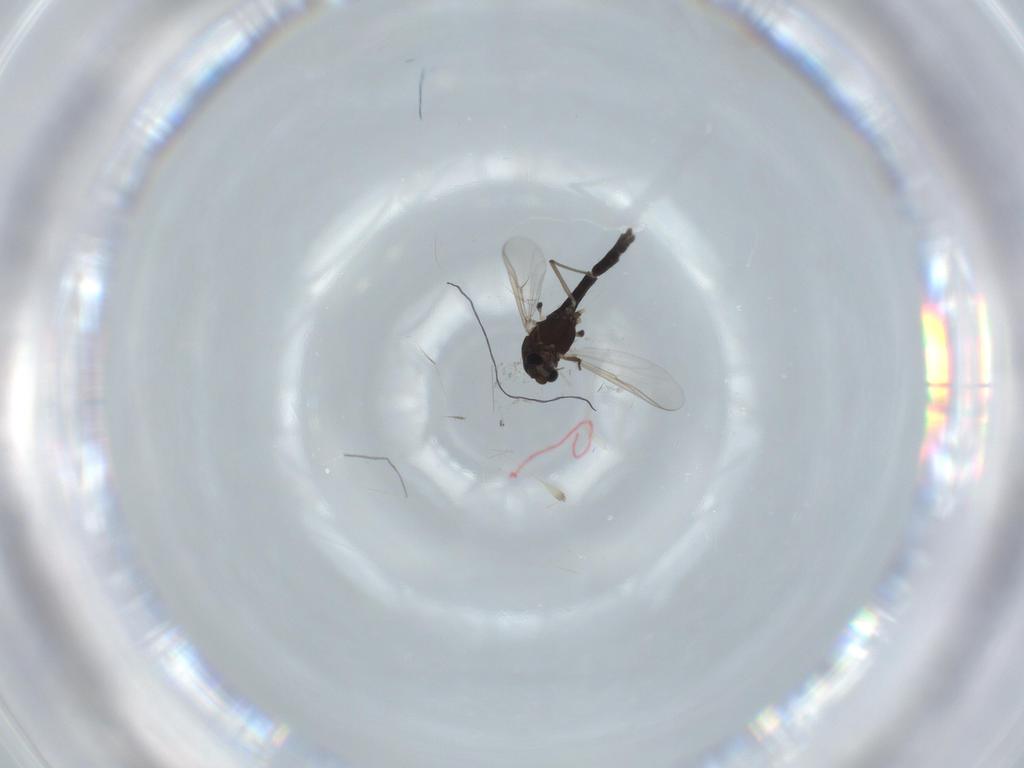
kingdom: Animalia
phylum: Arthropoda
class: Insecta
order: Diptera
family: Chironomidae
